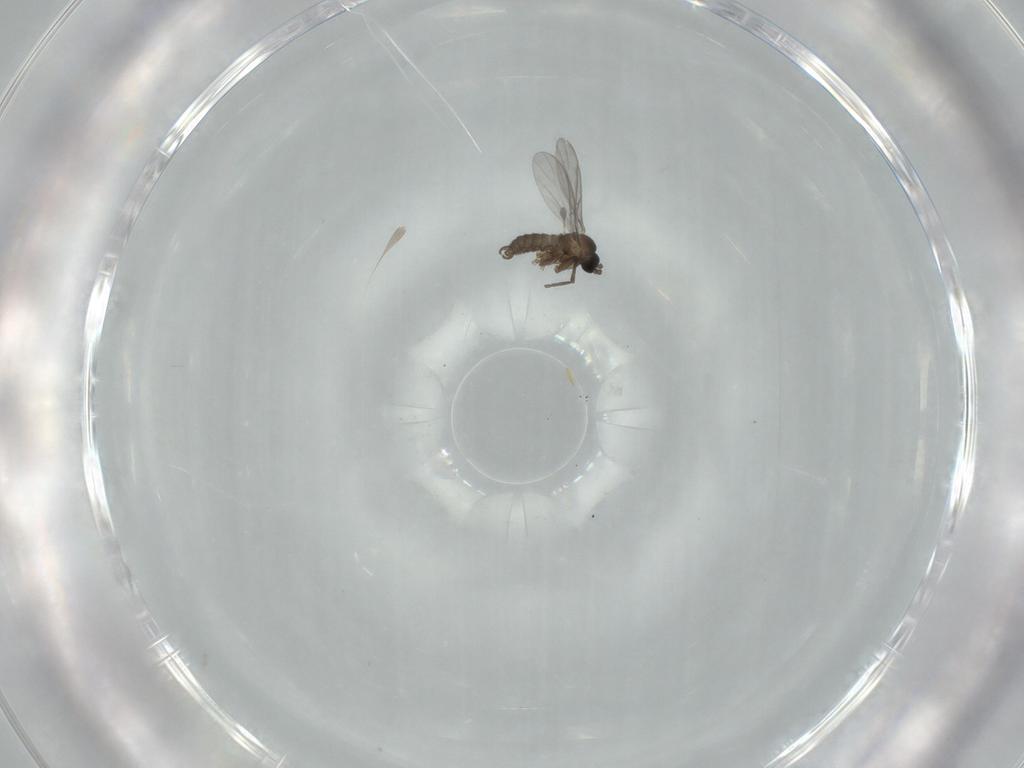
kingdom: Animalia
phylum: Arthropoda
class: Insecta
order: Diptera
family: Sciaridae
